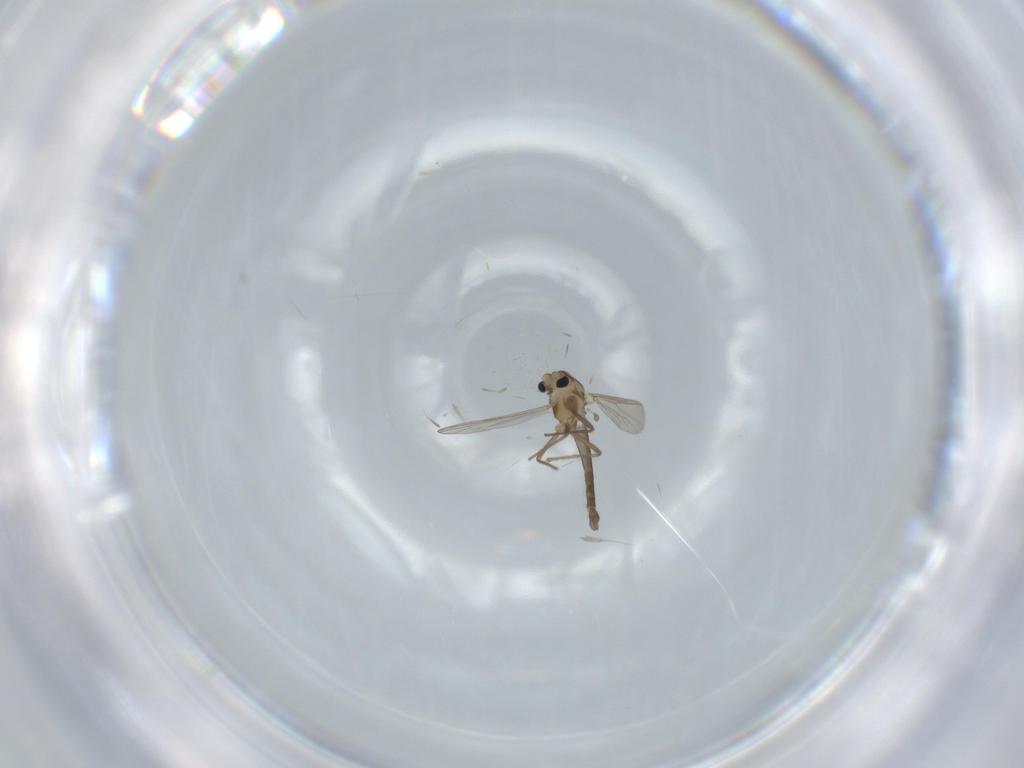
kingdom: Animalia
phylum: Arthropoda
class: Insecta
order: Diptera
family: Chironomidae
